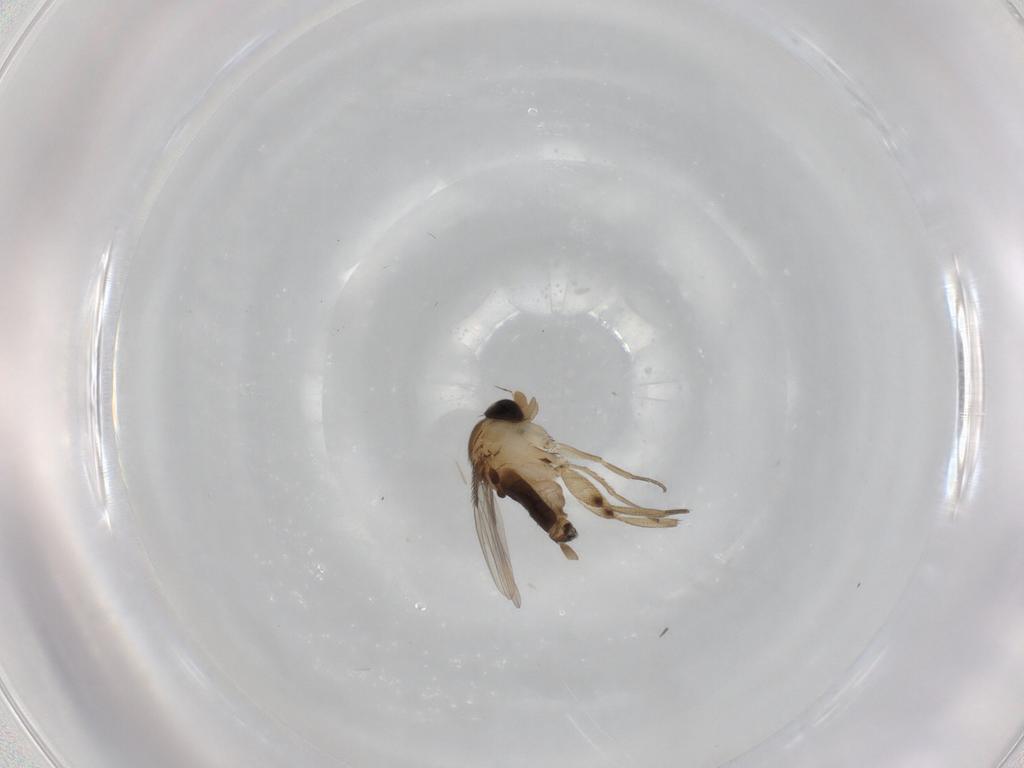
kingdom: Animalia
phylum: Arthropoda
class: Insecta
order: Diptera
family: Phoridae
